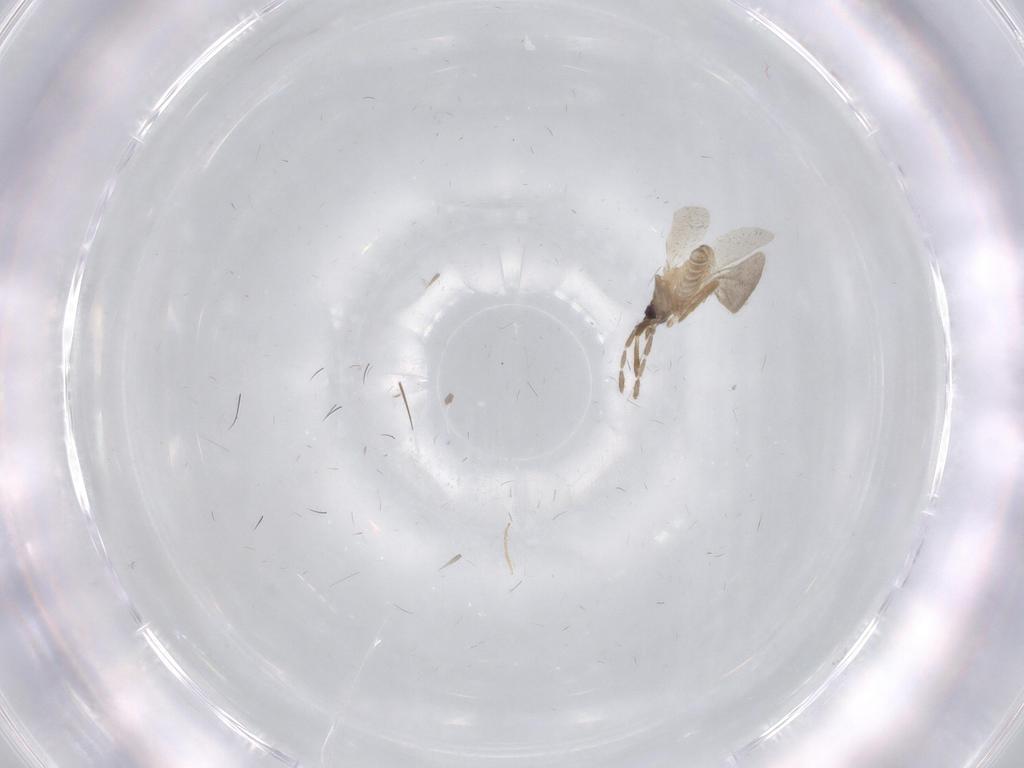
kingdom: Animalia
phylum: Arthropoda
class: Insecta
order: Hemiptera
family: Enicocephalidae
